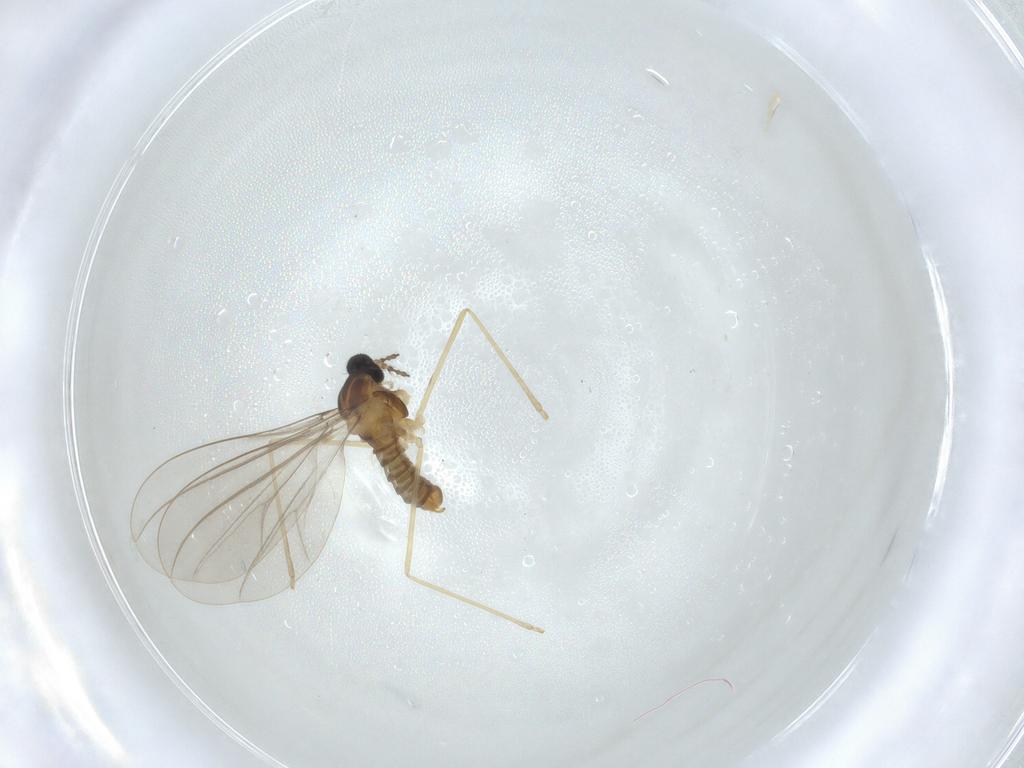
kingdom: Animalia
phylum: Arthropoda
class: Insecta
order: Diptera
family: Cecidomyiidae
